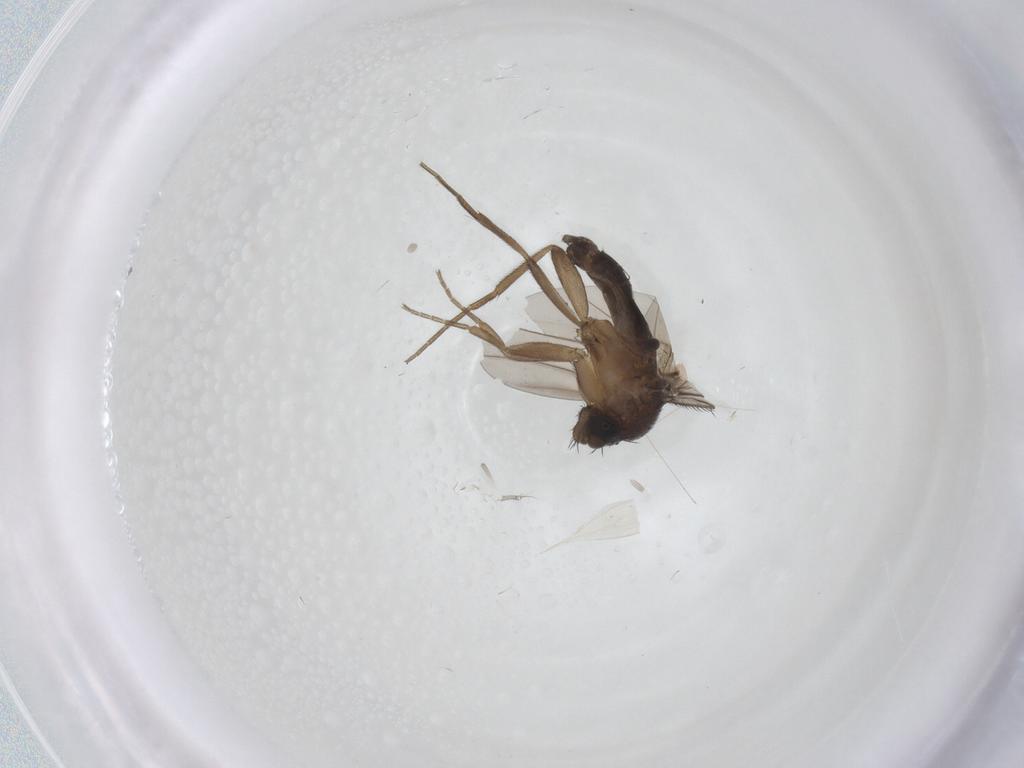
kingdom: Animalia
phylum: Arthropoda
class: Insecta
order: Diptera
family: Phoridae
